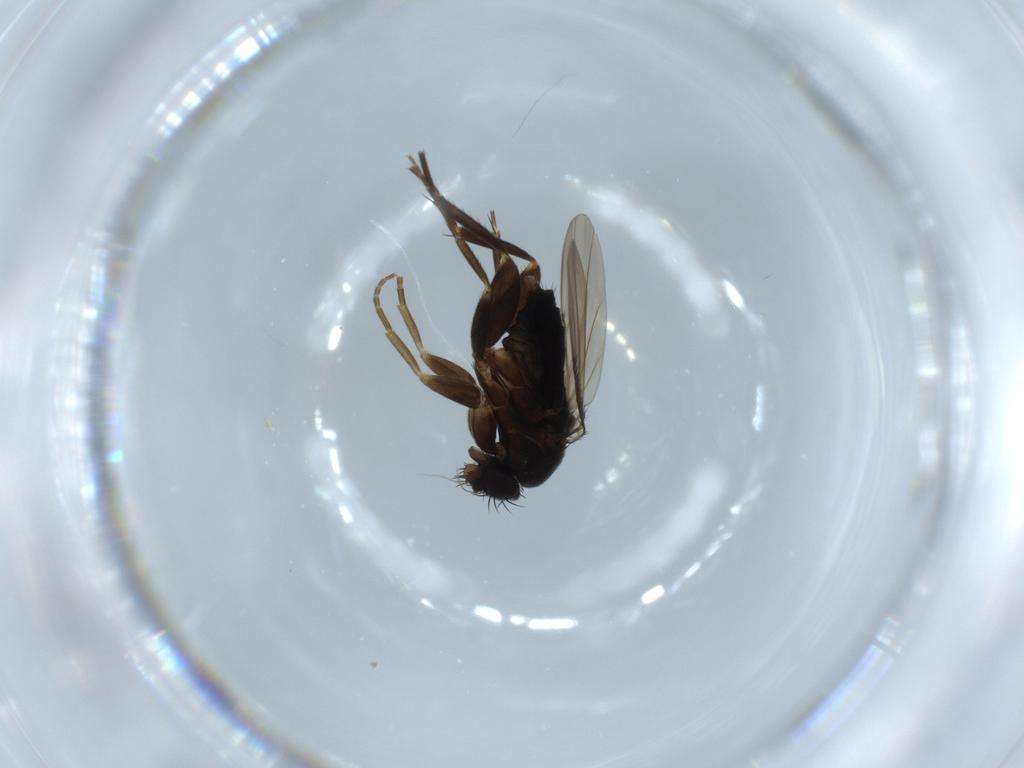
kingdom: Animalia
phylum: Arthropoda
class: Insecta
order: Diptera
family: Phoridae
